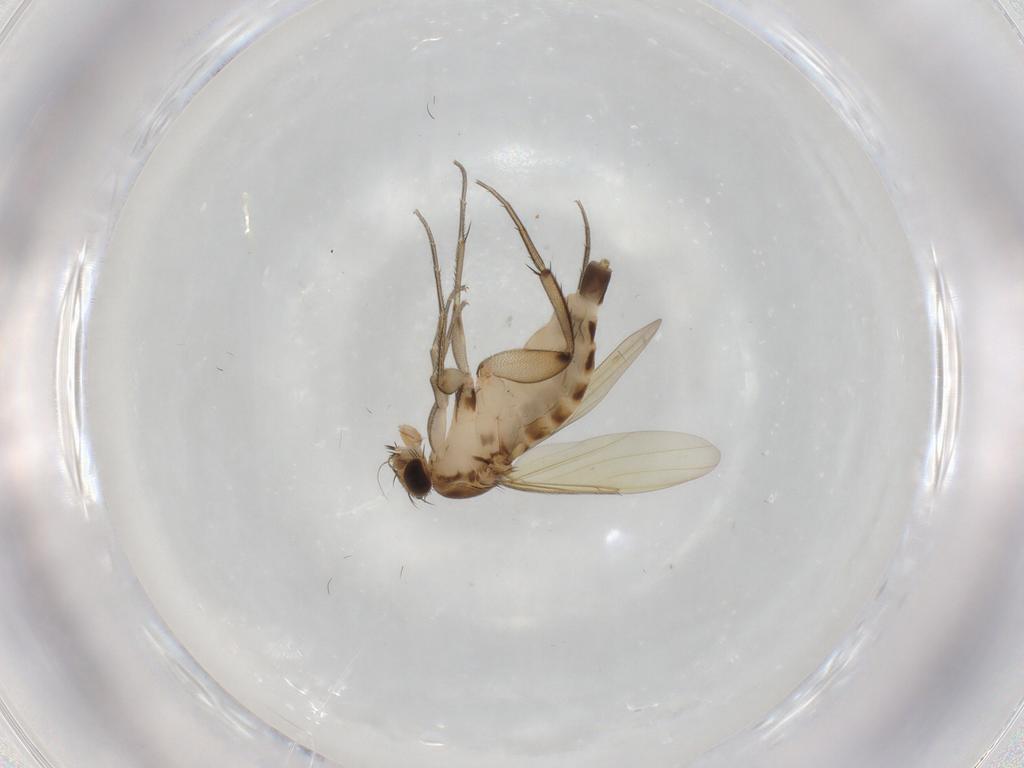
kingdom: Animalia
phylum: Arthropoda
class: Insecta
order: Diptera
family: Phoridae
